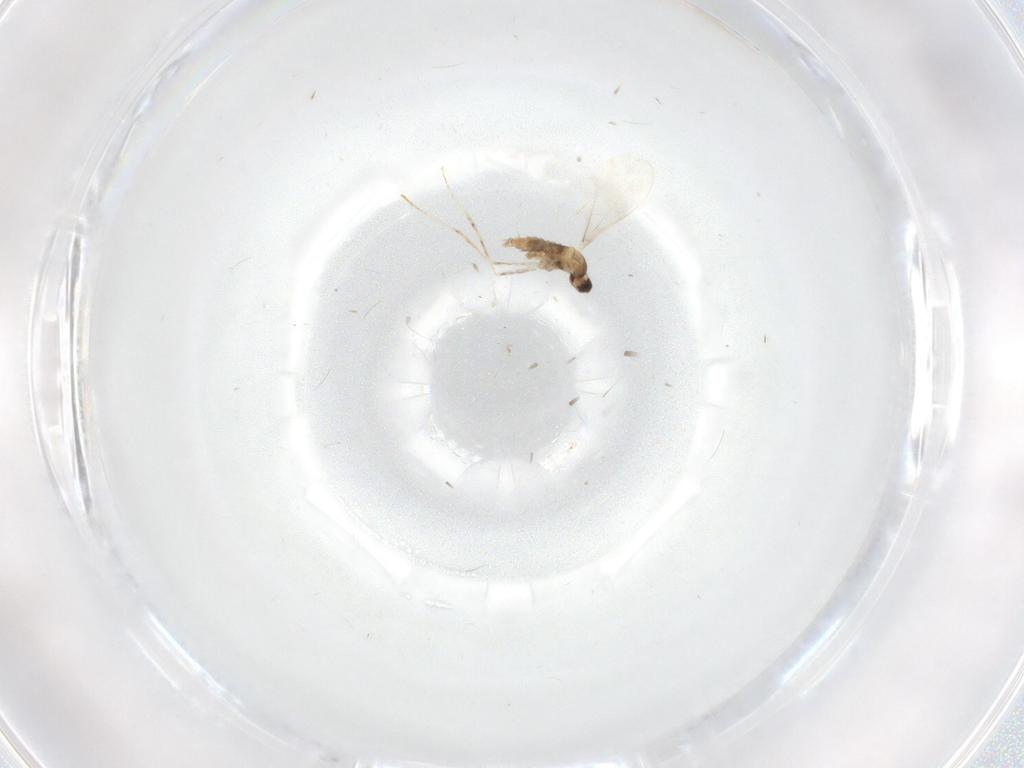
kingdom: Animalia
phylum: Arthropoda
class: Insecta
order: Diptera
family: Chironomidae
